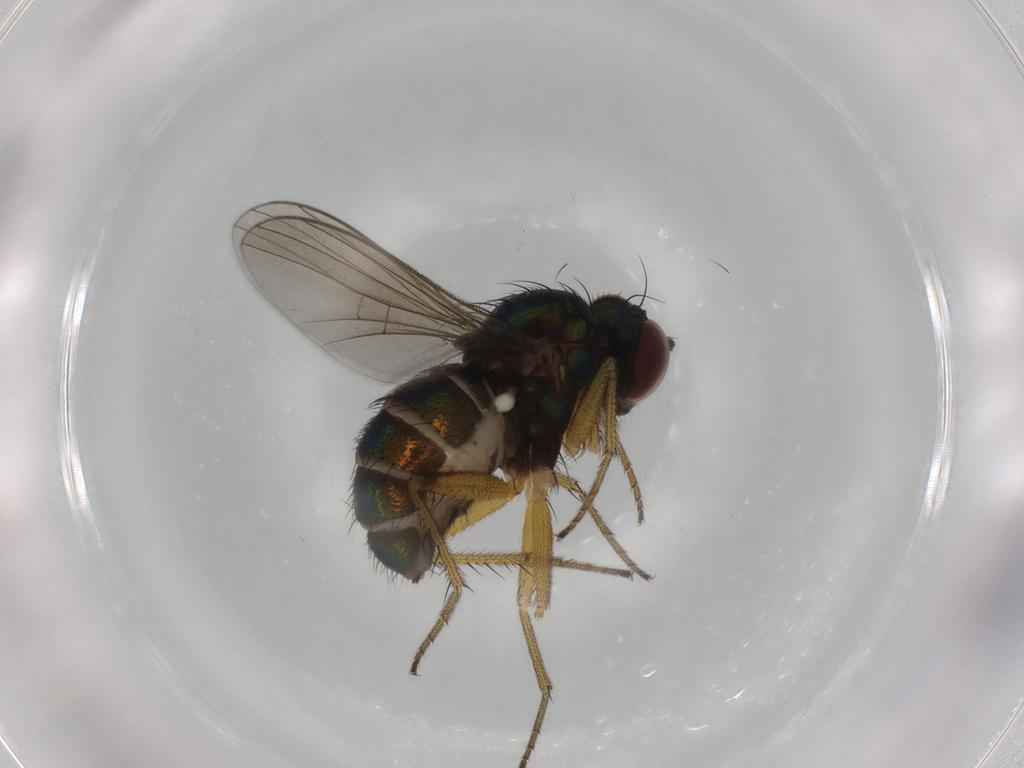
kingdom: Animalia
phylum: Arthropoda
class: Insecta
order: Diptera
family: Dolichopodidae
